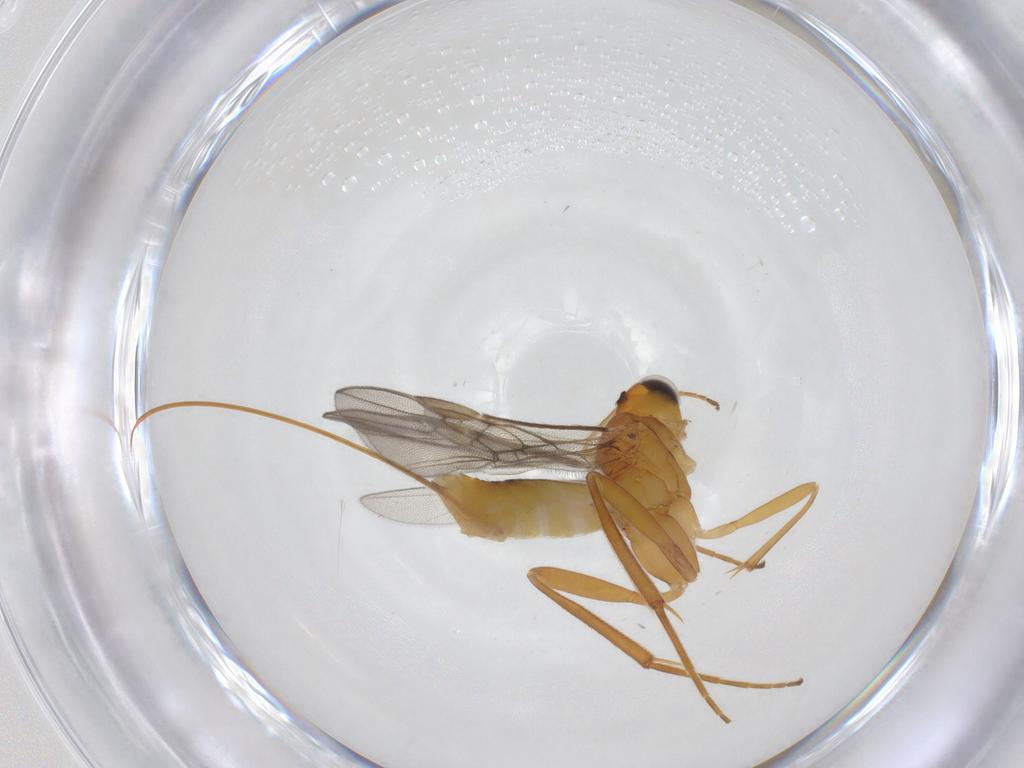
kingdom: Animalia
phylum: Arthropoda
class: Insecta
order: Hymenoptera
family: Braconidae
